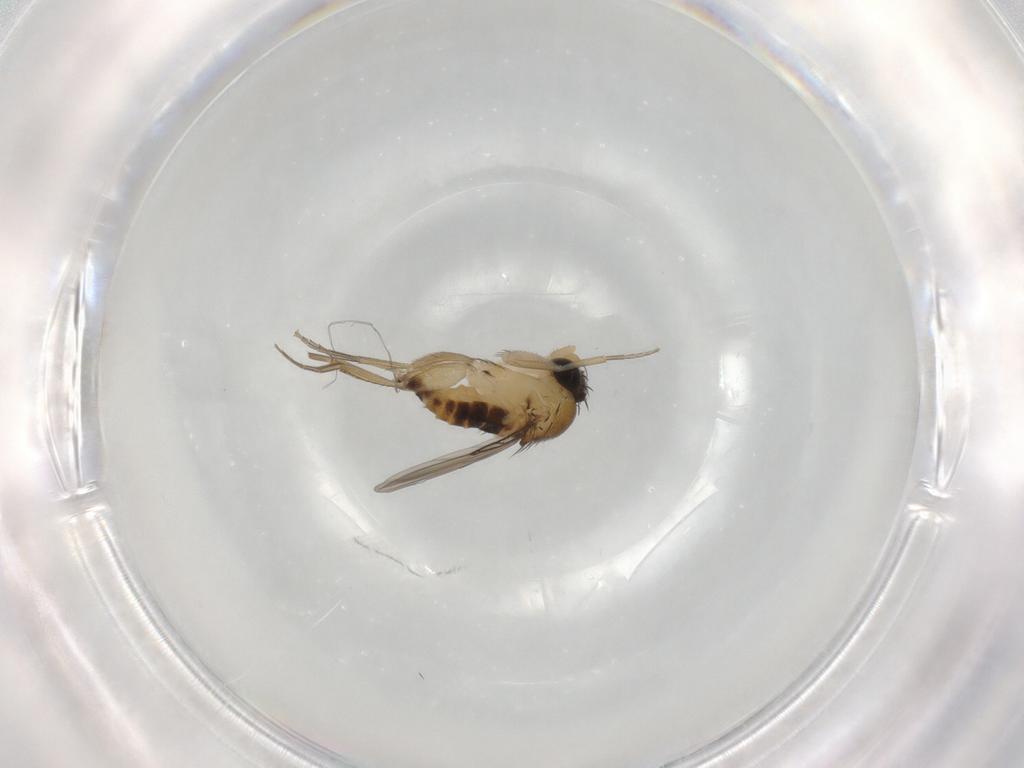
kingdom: Animalia
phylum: Arthropoda
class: Insecta
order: Diptera
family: Phoridae
